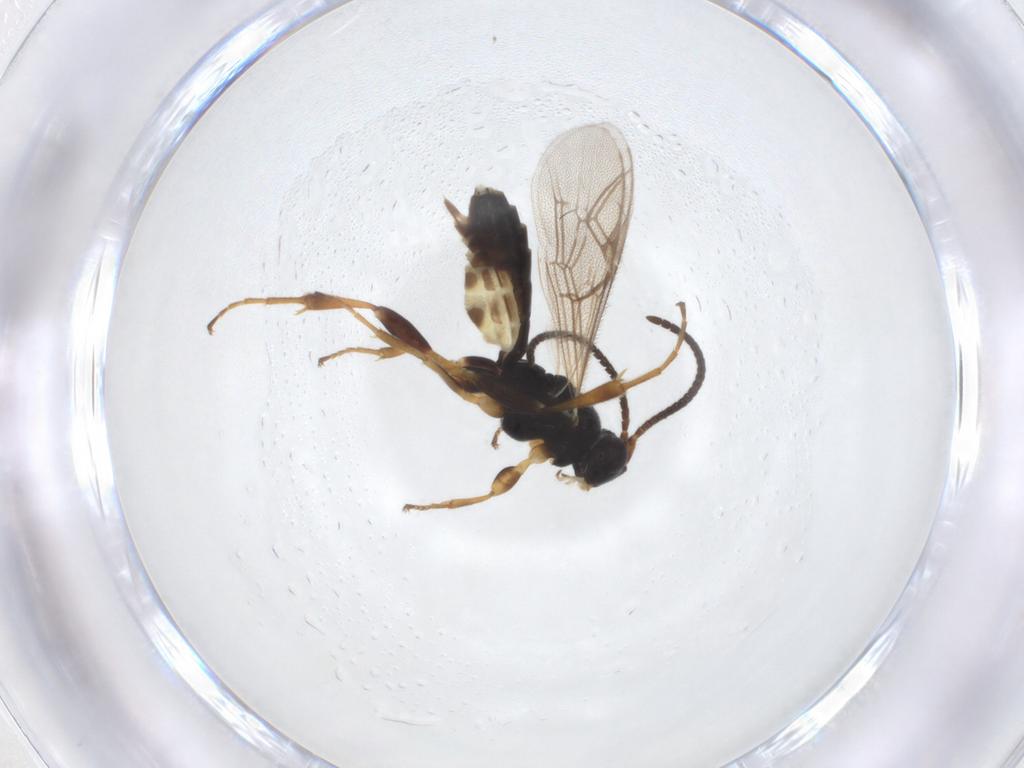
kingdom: Animalia
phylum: Arthropoda
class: Insecta
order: Hymenoptera
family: Ichneumonidae
